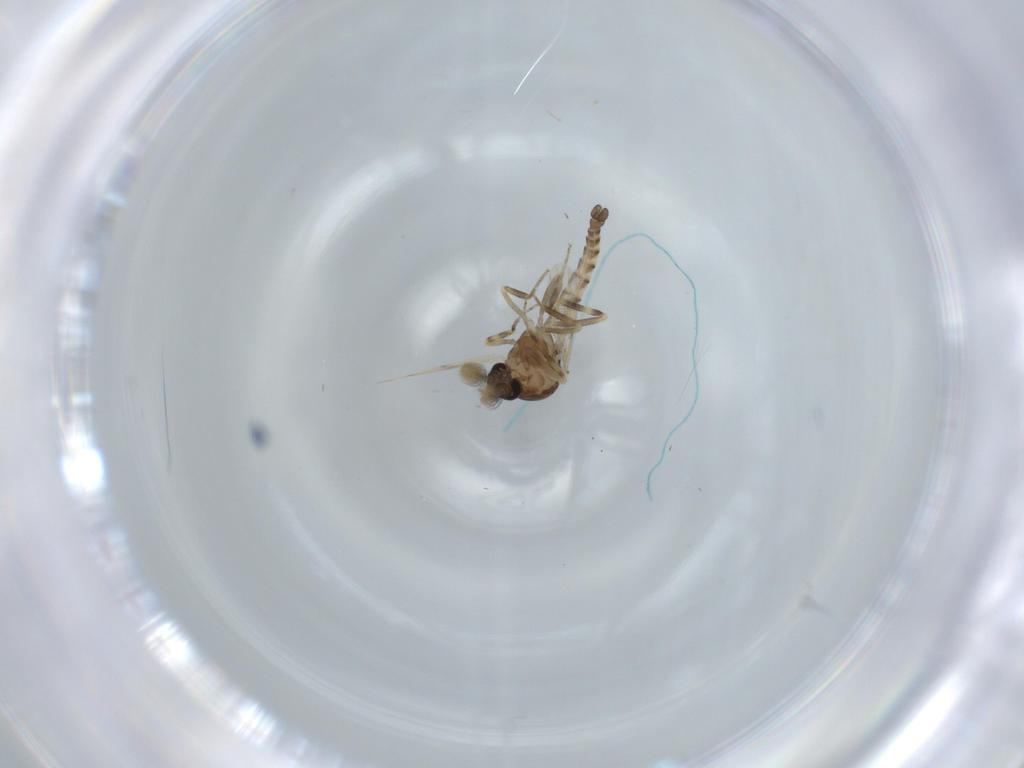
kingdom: Animalia
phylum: Arthropoda
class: Insecta
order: Diptera
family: Ceratopogonidae
